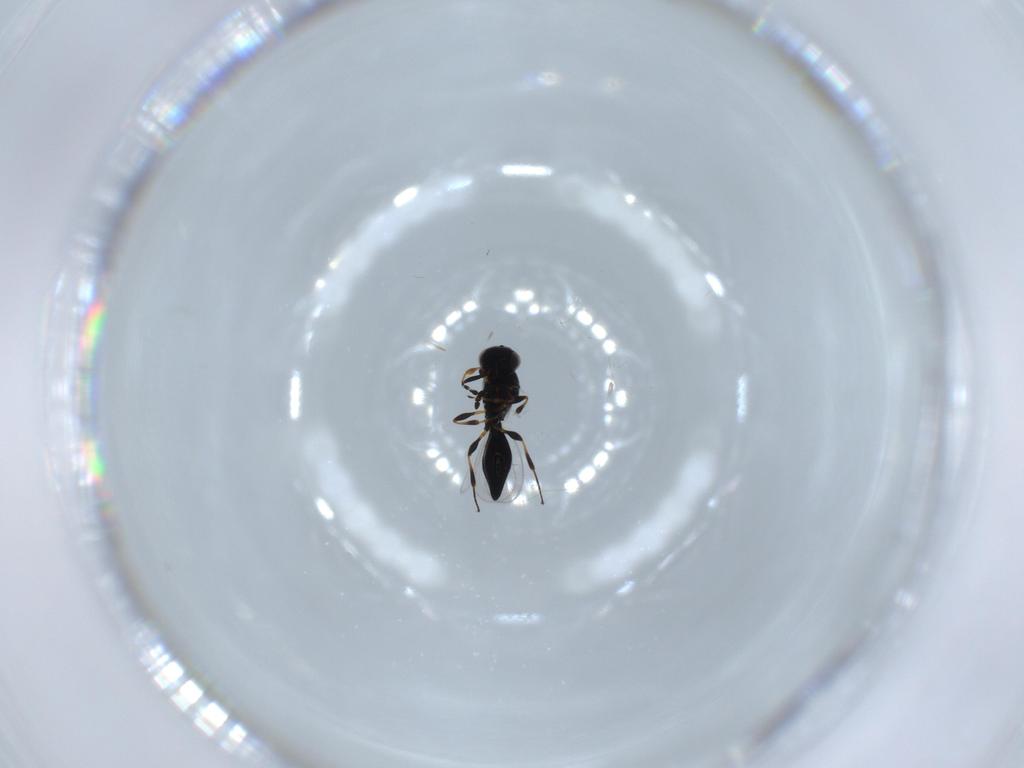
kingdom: Animalia
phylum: Arthropoda
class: Insecta
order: Hymenoptera
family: Platygastridae
